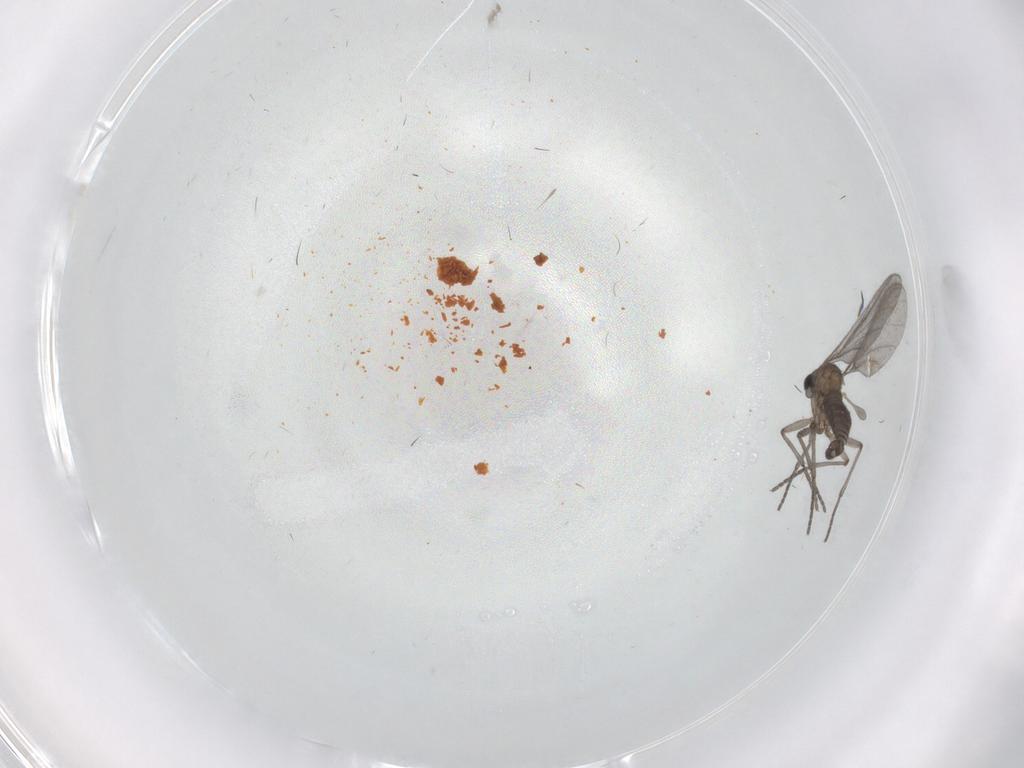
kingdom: Animalia
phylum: Arthropoda
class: Insecta
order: Diptera
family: Sciaridae
